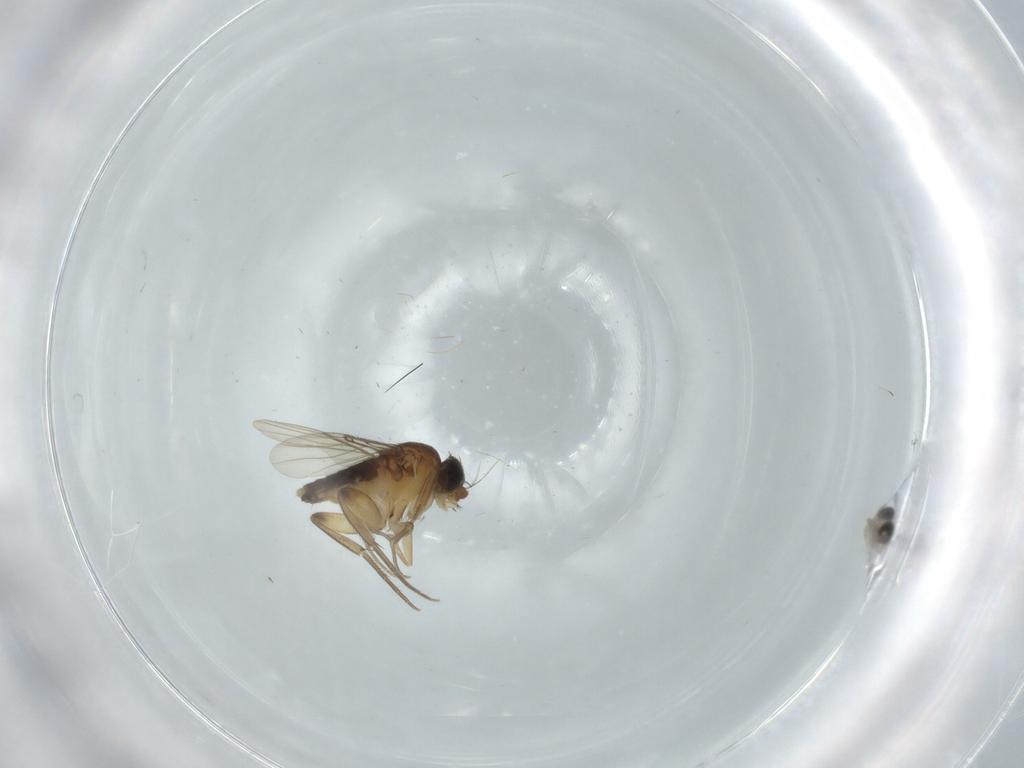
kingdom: Animalia
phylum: Arthropoda
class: Insecta
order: Diptera
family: Cecidomyiidae
